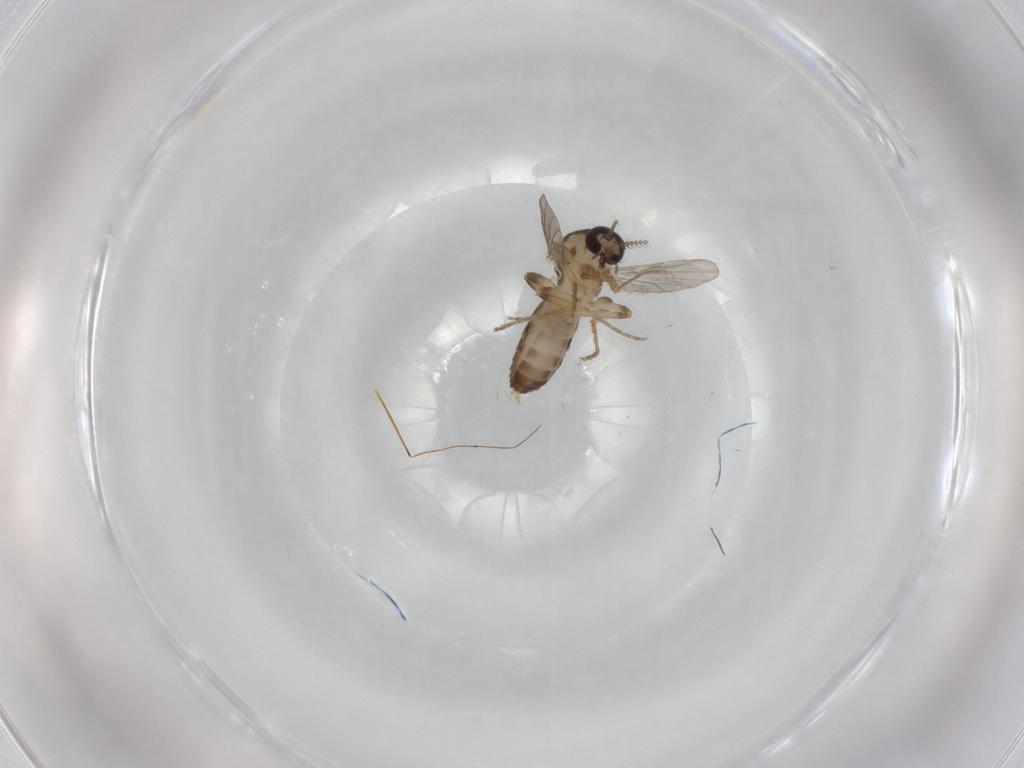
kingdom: Animalia
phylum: Arthropoda
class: Insecta
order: Diptera
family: Ceratopogonidae
